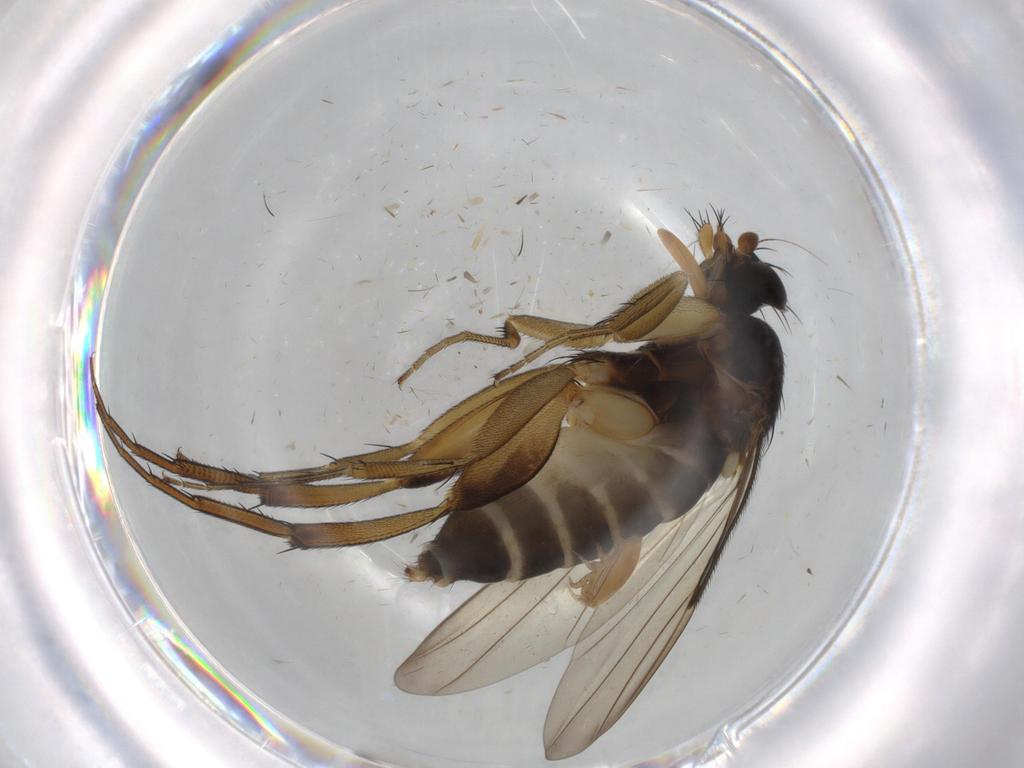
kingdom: Animalia
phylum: Arthropoda
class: Insecta
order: Diptera
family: Phoridae
